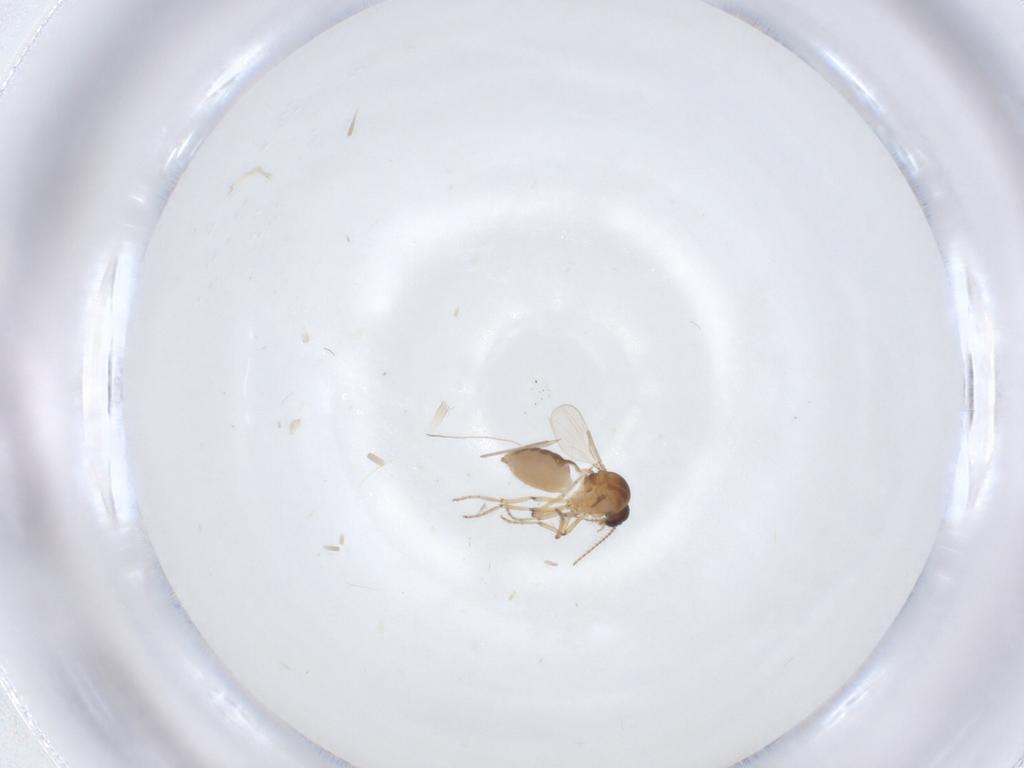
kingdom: Animalia
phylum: Arthropoda
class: Insecta
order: Diptera
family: Ceratopogonidae
